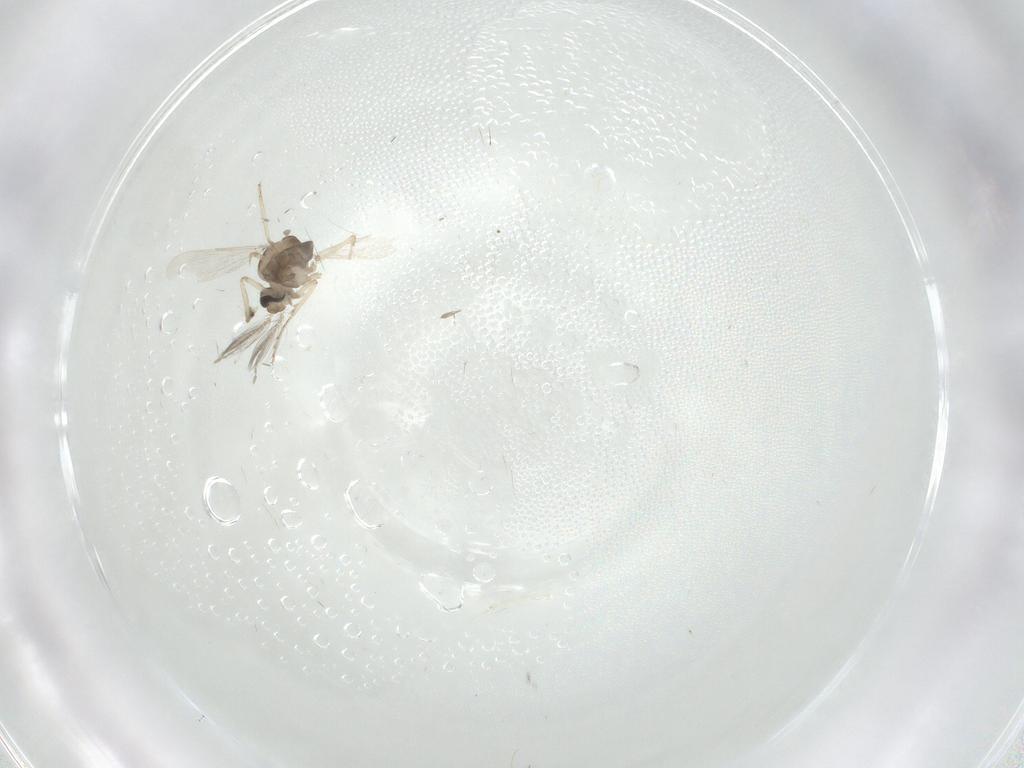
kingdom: Animalia
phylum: Arthropoda
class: Insecta
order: Diptera
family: Ceratopogonidae
